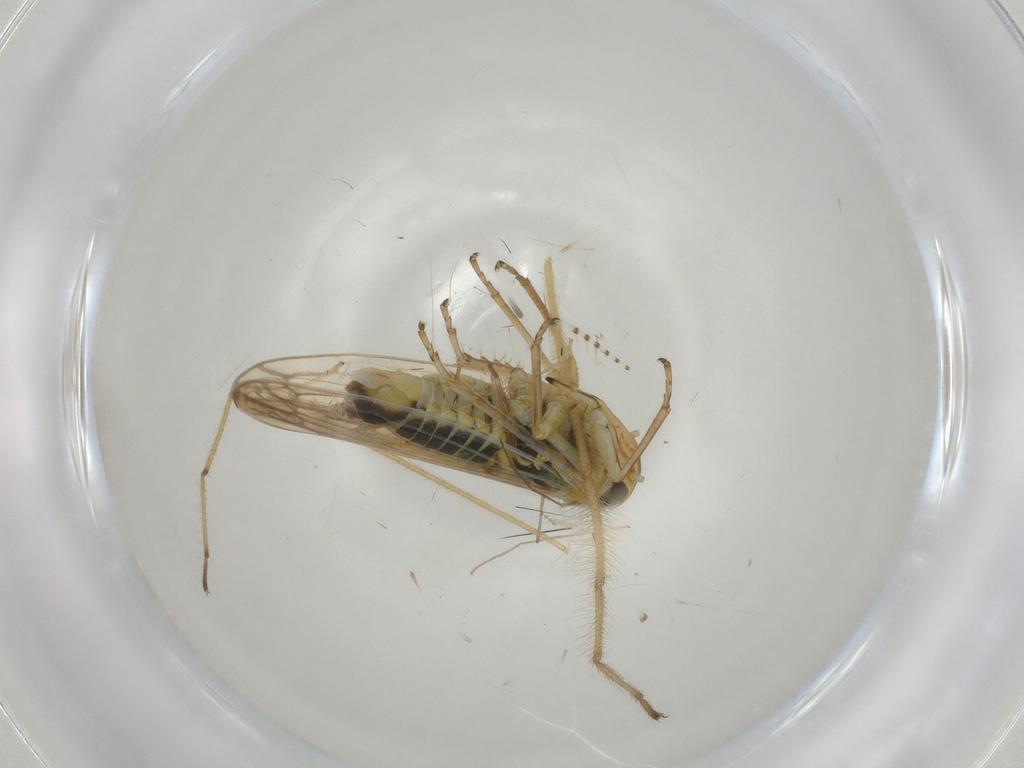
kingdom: Animalia
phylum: Arthropoda
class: Insecta
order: Hemiptera
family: Cicadellidae
